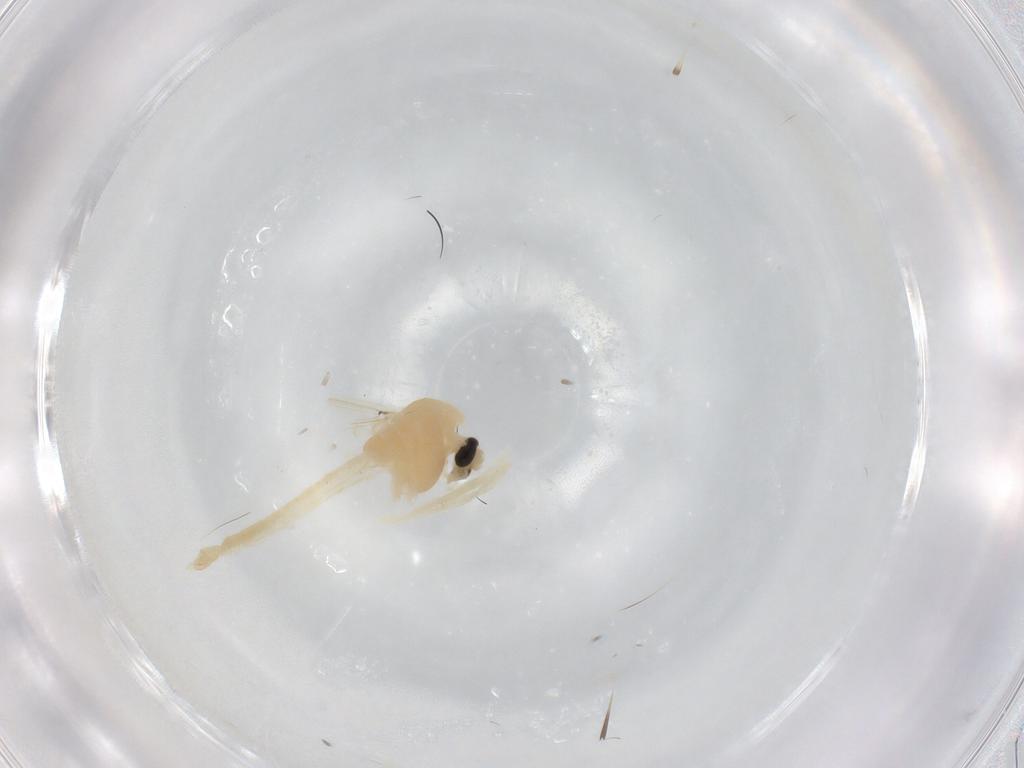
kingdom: Animalia
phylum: Arthropoda
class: Insecta
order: Diptera
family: Chironomidae
